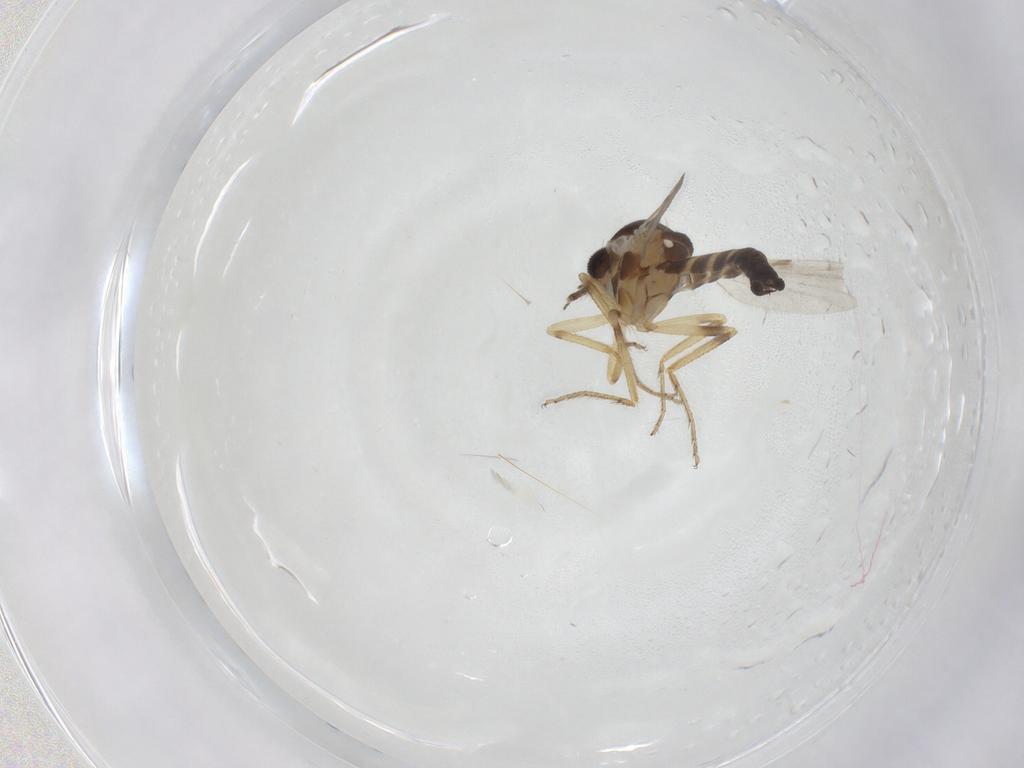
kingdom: Animalia
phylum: Arthropoda
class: Insecta
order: Diptera
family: Ceratopogonidae
